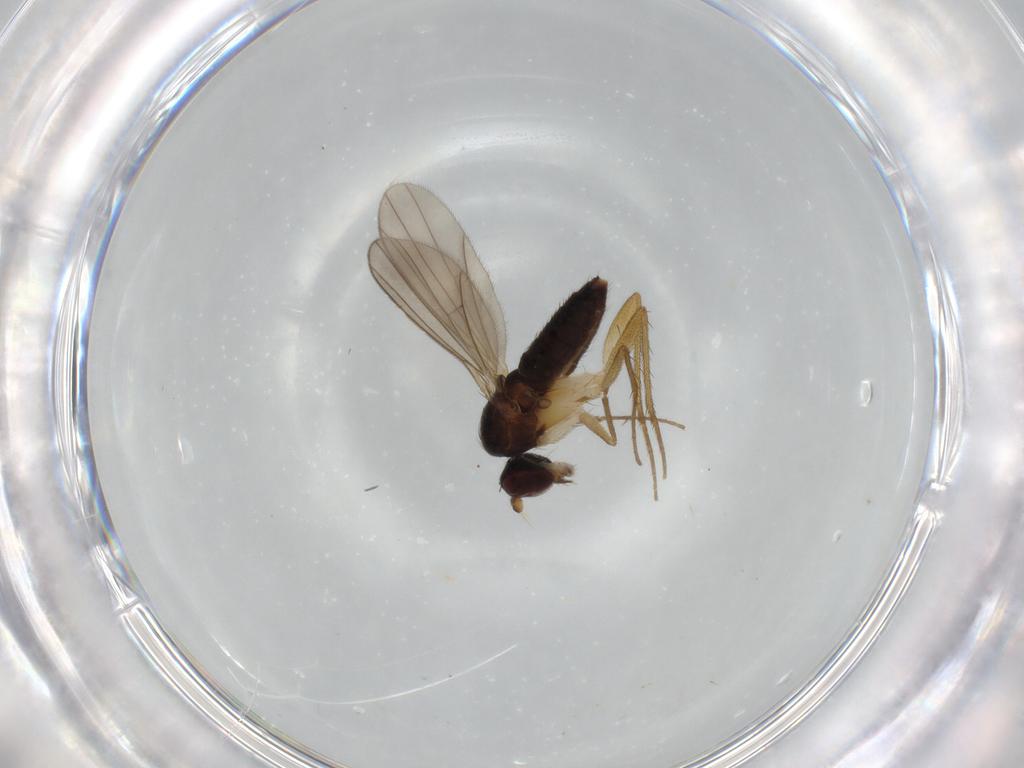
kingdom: Animalia
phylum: Arthropoda
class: Insecta
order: Diptera
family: Dolichopodidae
